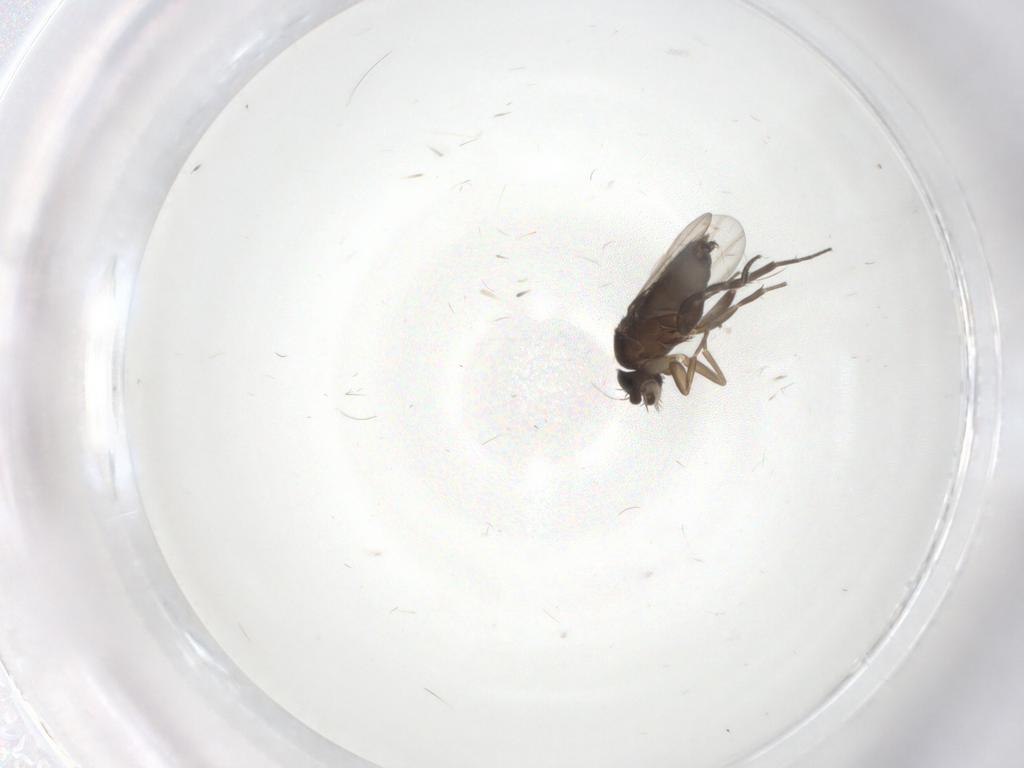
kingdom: Animalia
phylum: Arthropoda
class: Insecta
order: Diptera
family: Phoridae
